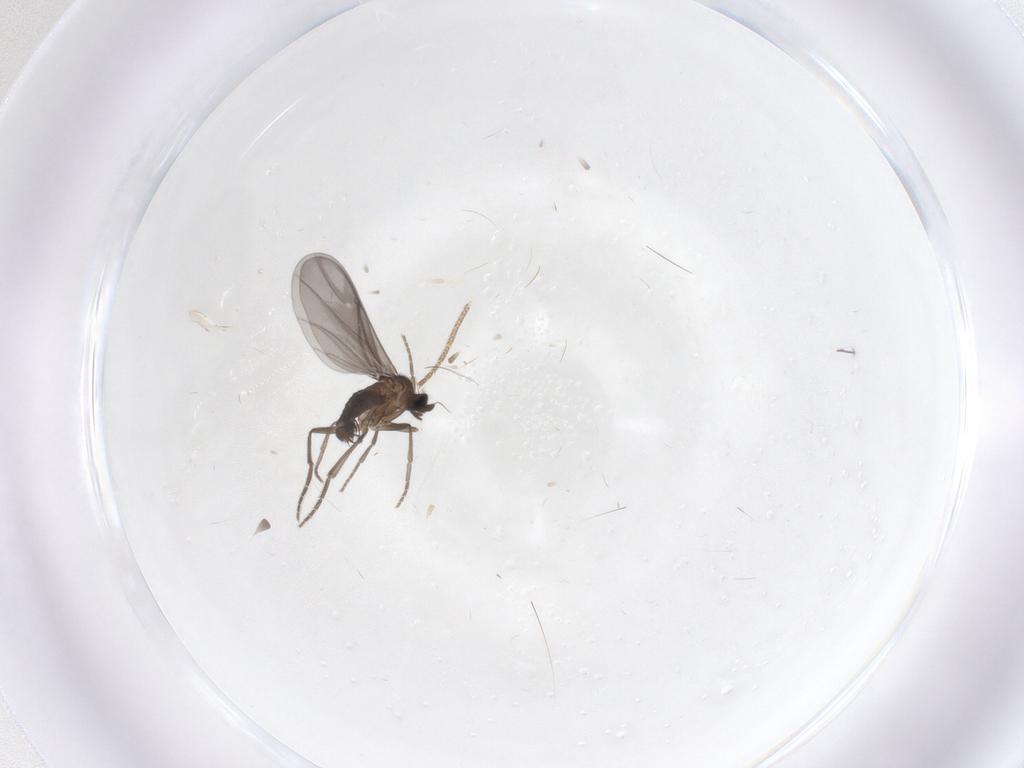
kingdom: Animalia
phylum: Arthropoda
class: Insecta
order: Diptera
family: Phoridae
